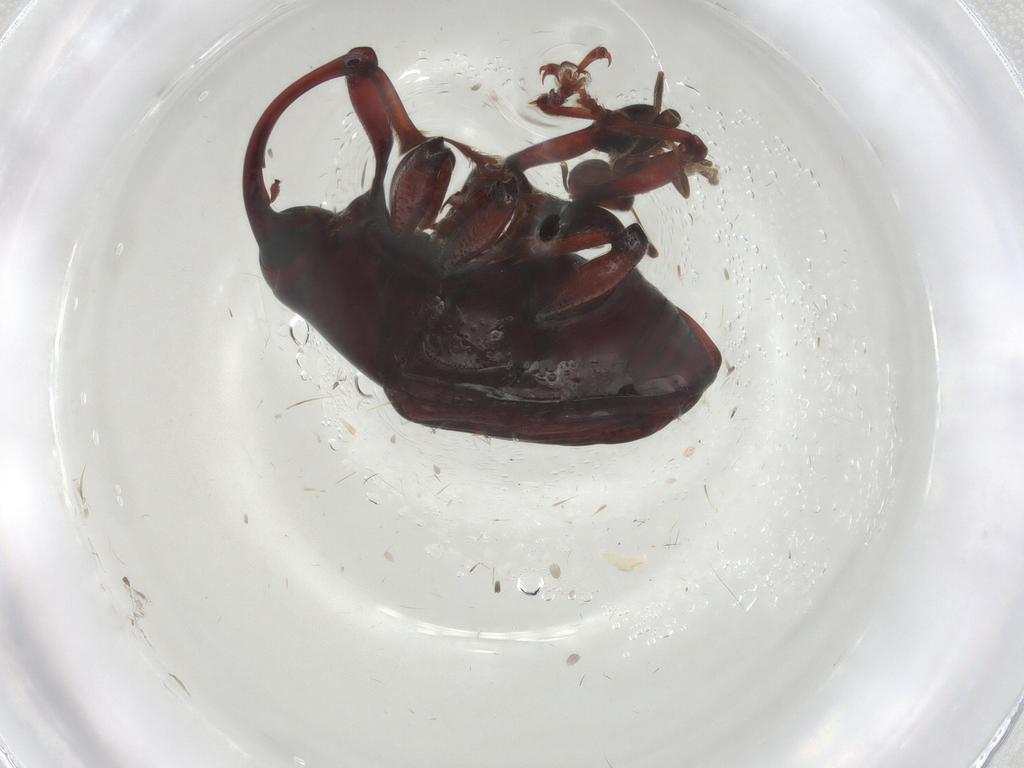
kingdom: Animalia
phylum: Arthropoda
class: Insecta
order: Coleoptera
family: Curculionidae
